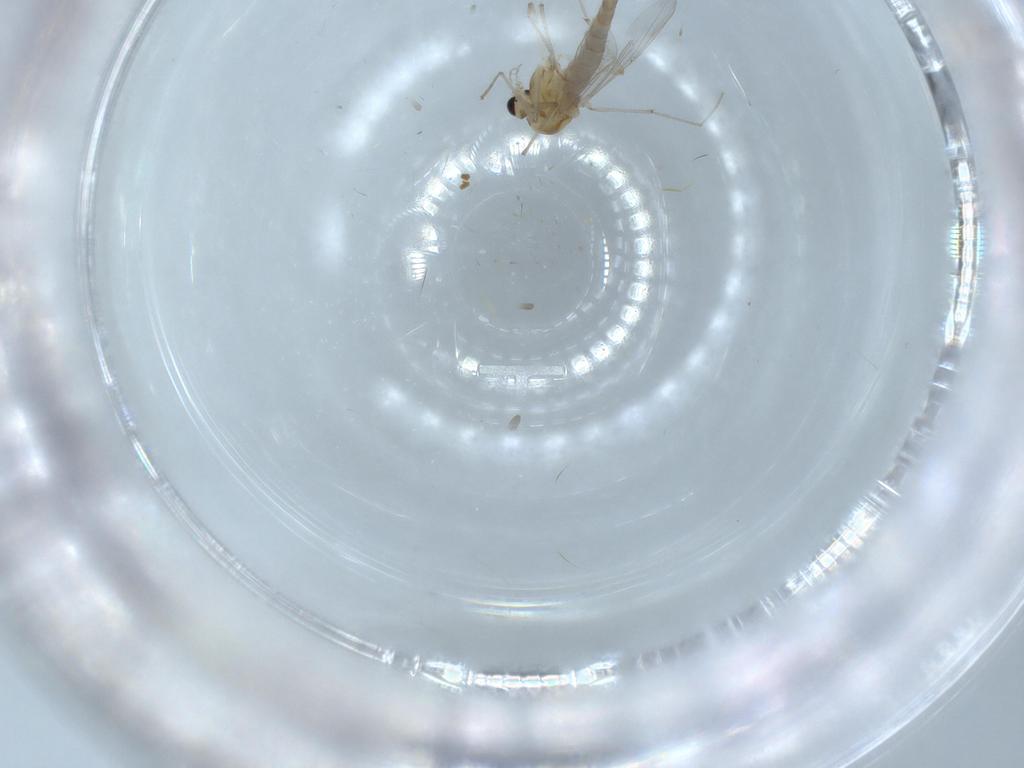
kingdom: Animalia
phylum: Arthropoda
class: Insecta
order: Diptera
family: Chironomidae
